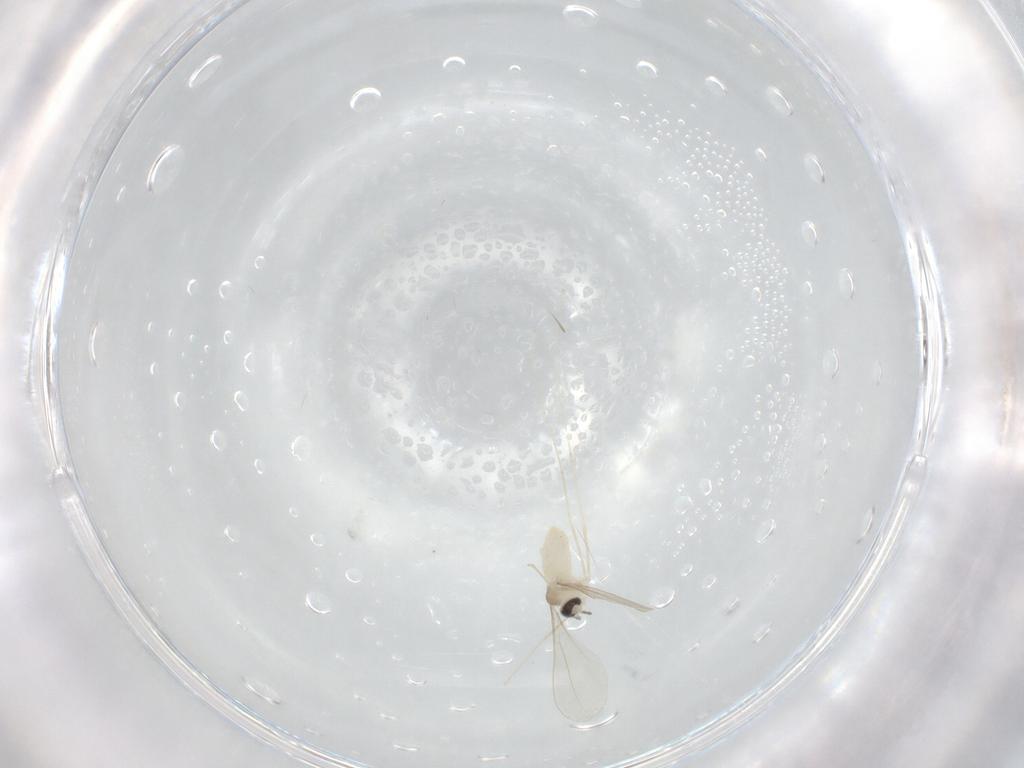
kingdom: Animalia
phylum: Arthropoda
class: Insecta
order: Diptera
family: Cecidomyiidae
